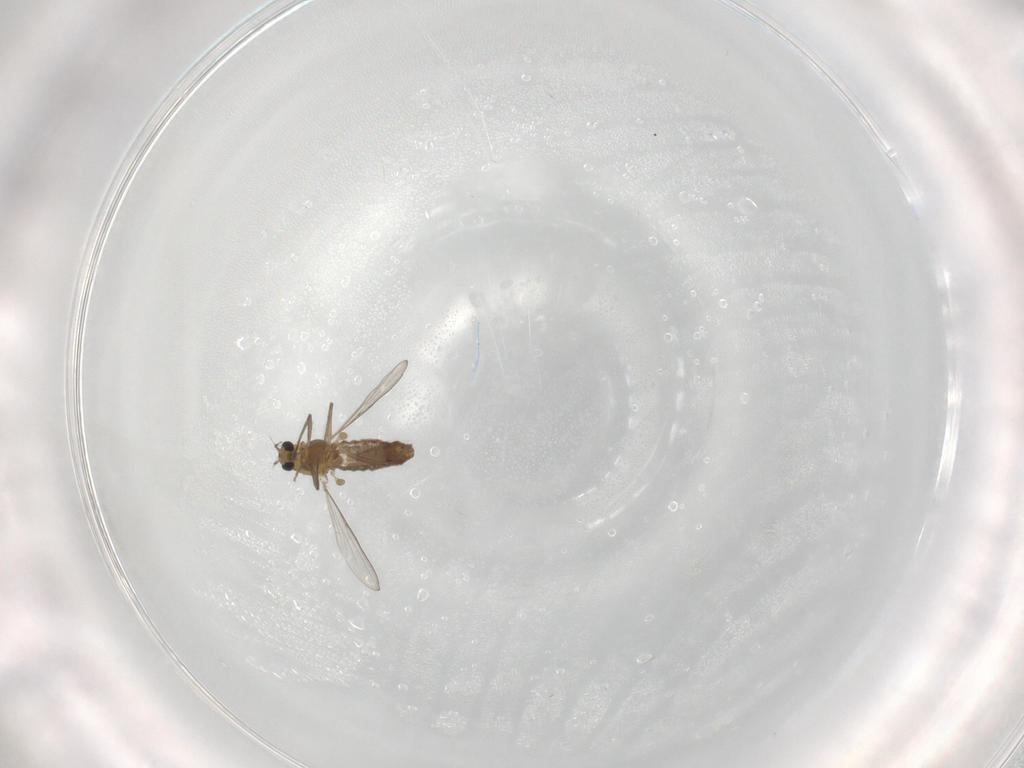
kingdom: Animalia
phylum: Arthropoda
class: Insecta
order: Diptera
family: Chironomidae
